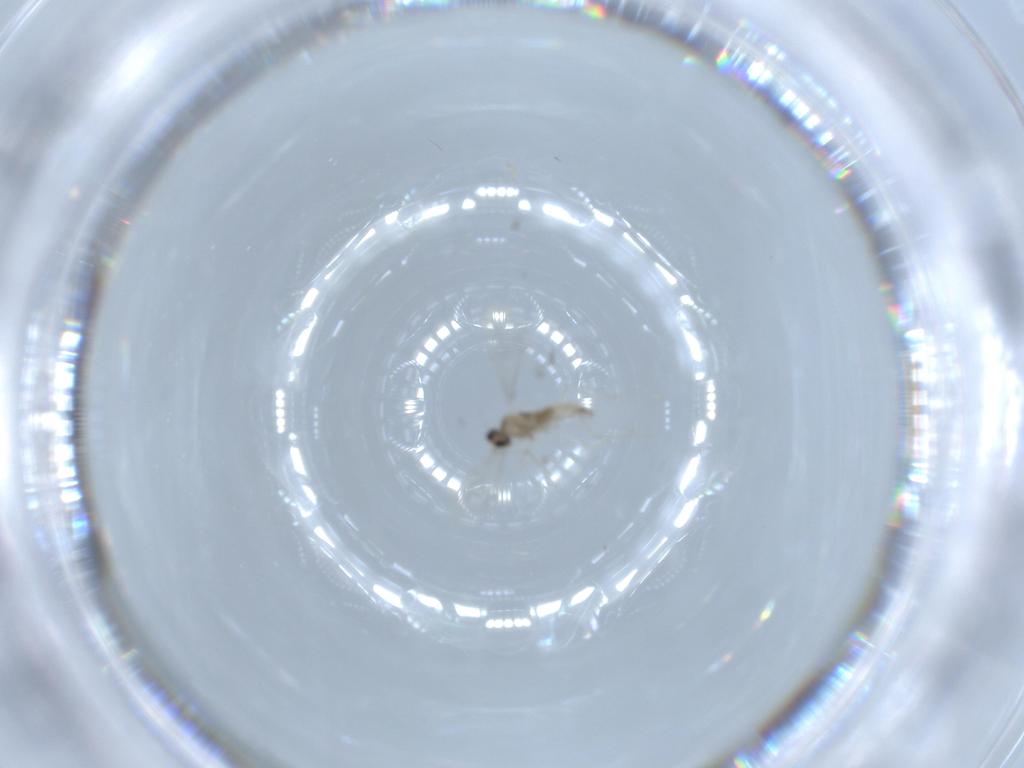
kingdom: Animalia
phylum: Arthropoda
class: Insecta
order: Diptera
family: Cecidomyiidae
